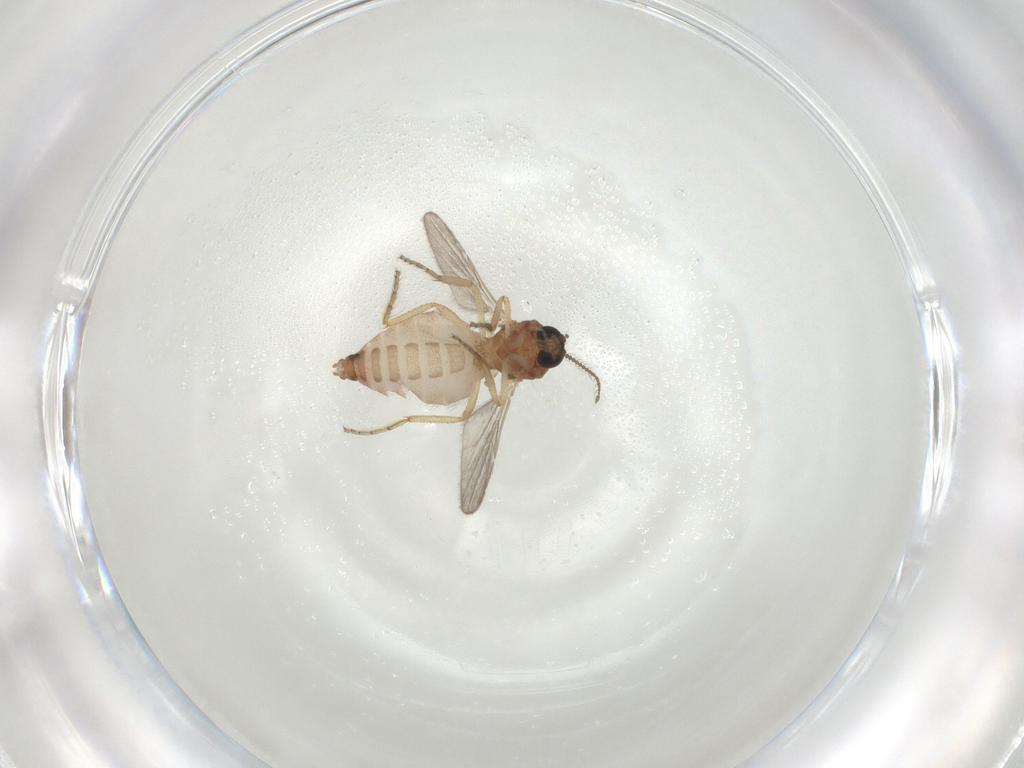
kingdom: Animalia
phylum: Arthropoda
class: Insecta
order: Diptera
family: Ceratopogonidae
